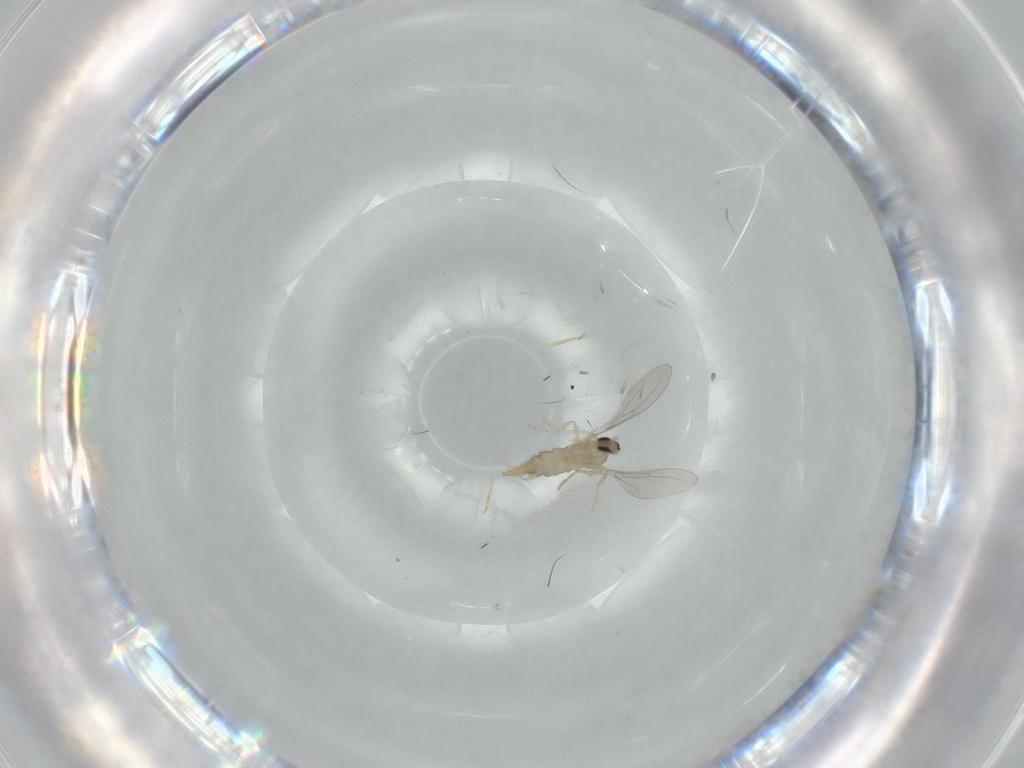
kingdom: Animalia
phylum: Arthropoda
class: Insecta
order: Diptera
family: Cecidomyiidae
